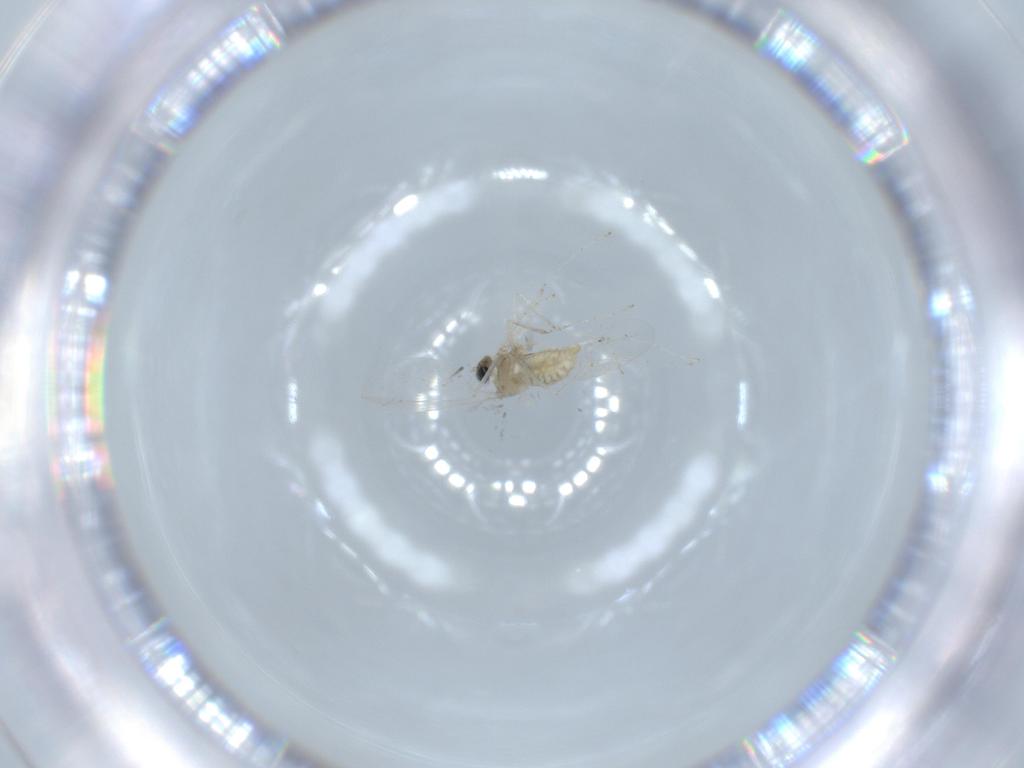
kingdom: Animalia
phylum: Arthropoda
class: Insecta
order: Diptera
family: Cecidomyiidae
